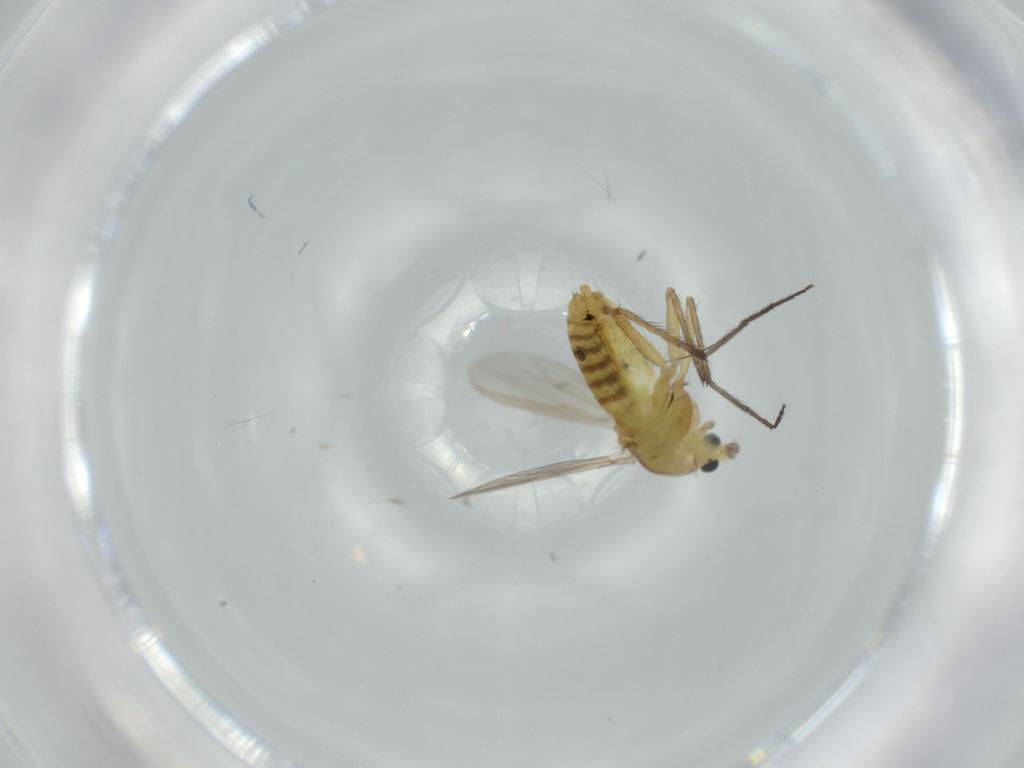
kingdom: Animalia
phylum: Arthropoda
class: Insecta
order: Diptera
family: Chironomidae
